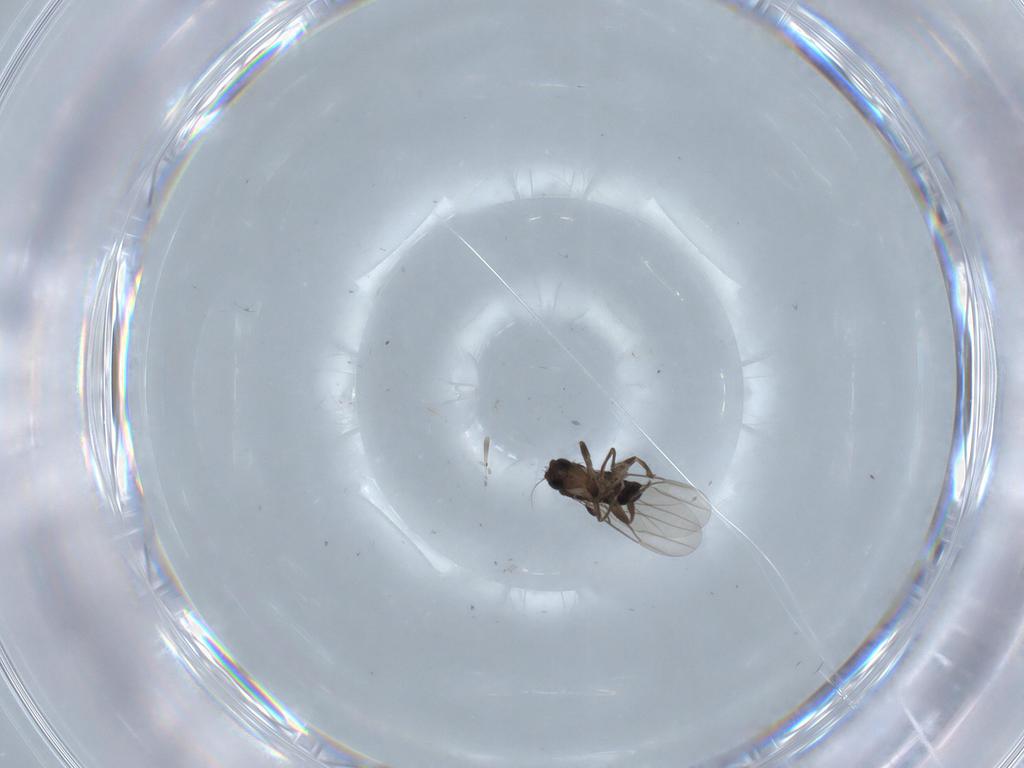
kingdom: Animalia
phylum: Arthropoda
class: Insecta
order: Diptera
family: Phoridae
